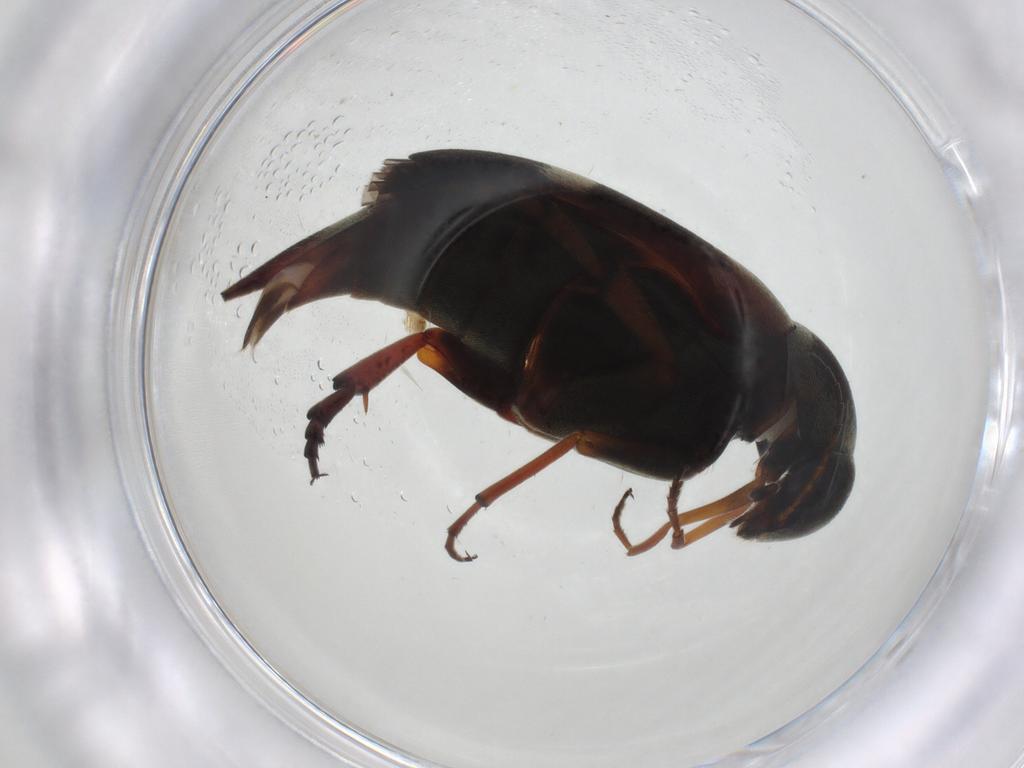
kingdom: Animalia
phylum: Arthropoda
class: Insecta
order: Coleoptera
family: Mordellidae
